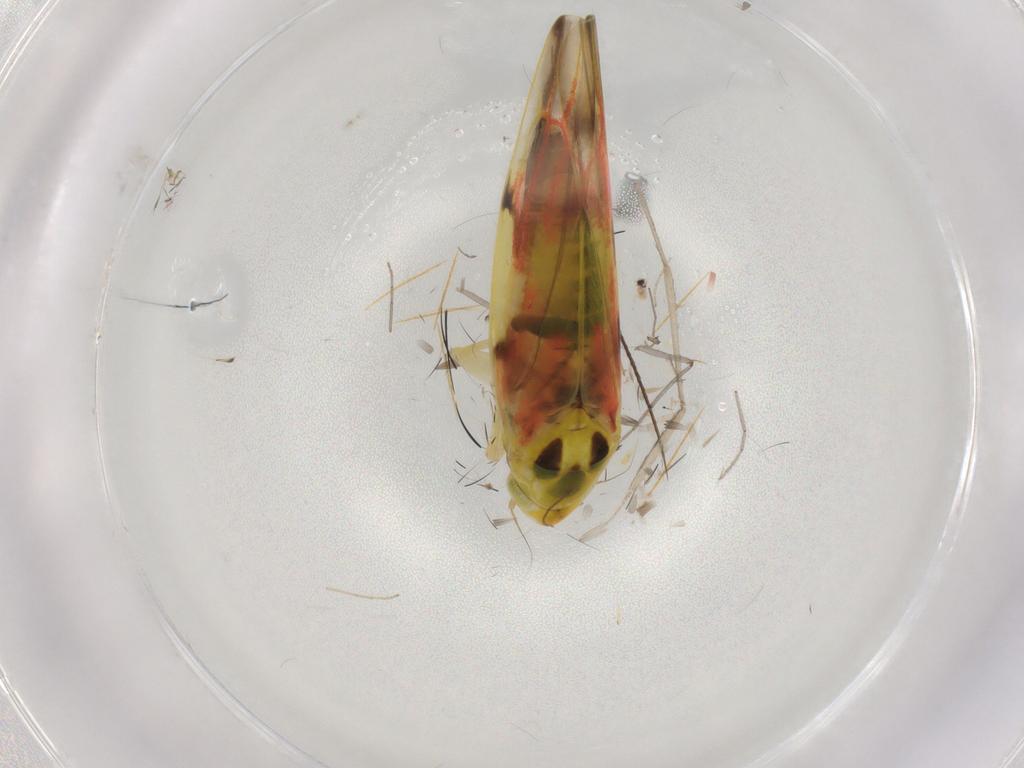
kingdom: Animalia
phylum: Arthropoda
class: Insecta
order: Hemiptera
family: Cicadellidae
